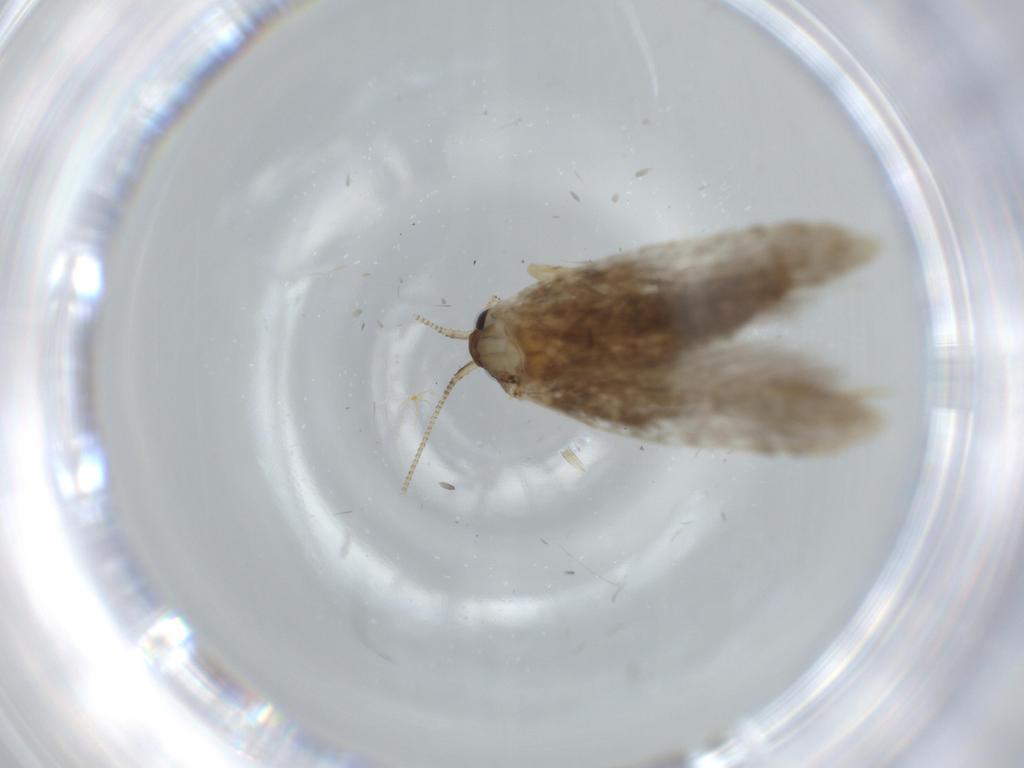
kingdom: Animalia
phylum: Arthropoda
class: Insecta
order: Lepidoptera
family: Tineidae
